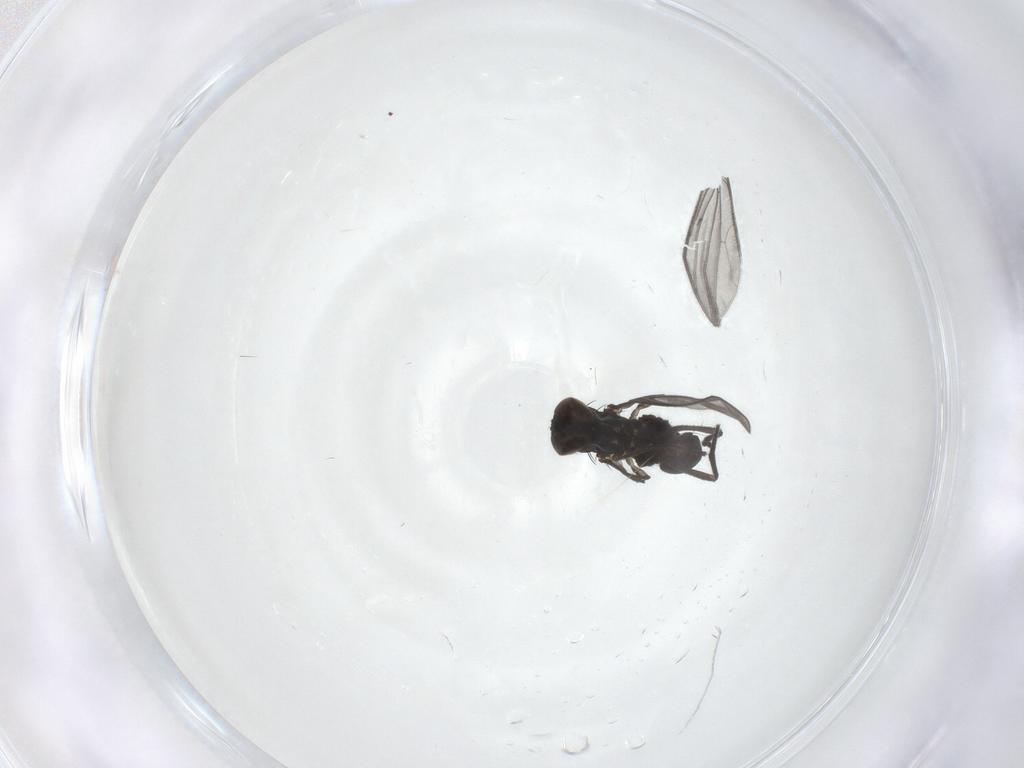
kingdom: Animalia
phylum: Arthropoda
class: Insecta
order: Diptera
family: Dolichopodidae
